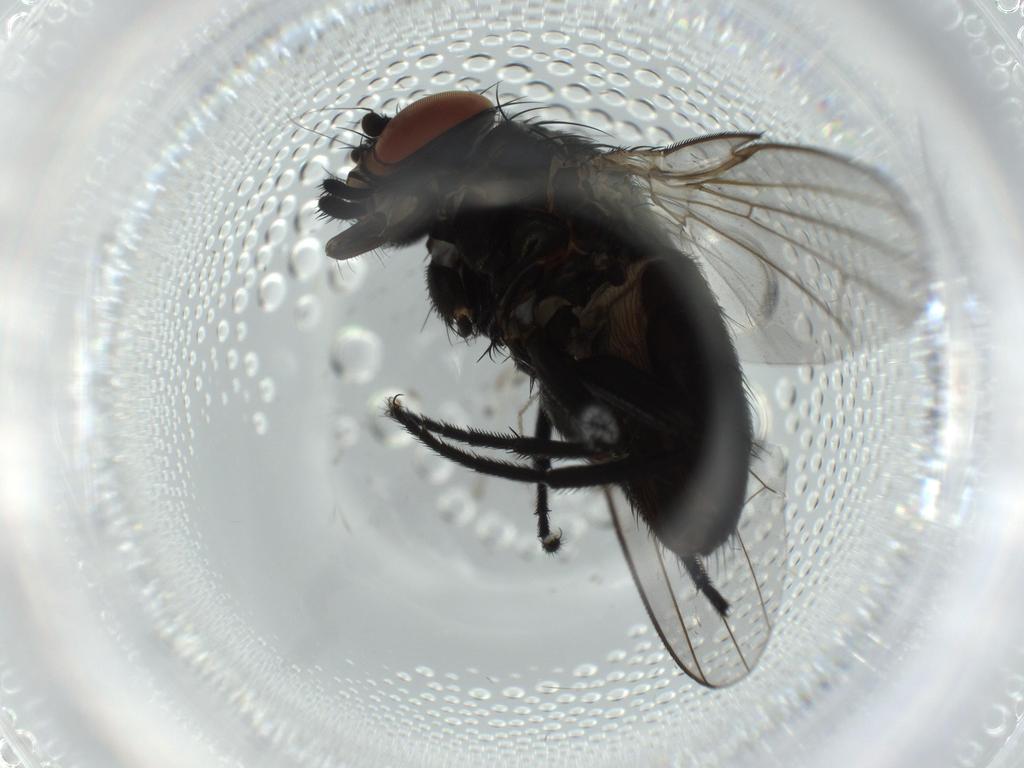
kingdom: Animalia
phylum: Arthropoda
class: Insecta
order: Diptera
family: Milichiidae
